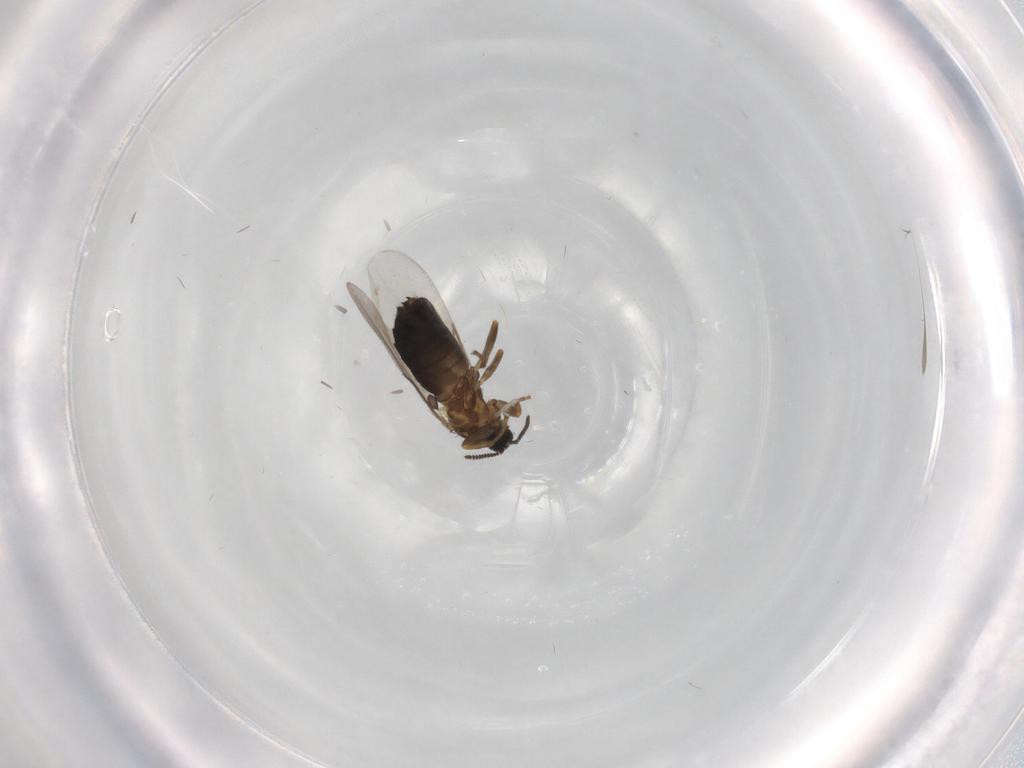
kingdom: Animalia
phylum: Arthropoda
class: Insecta
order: Diptera
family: Scatopsidae
